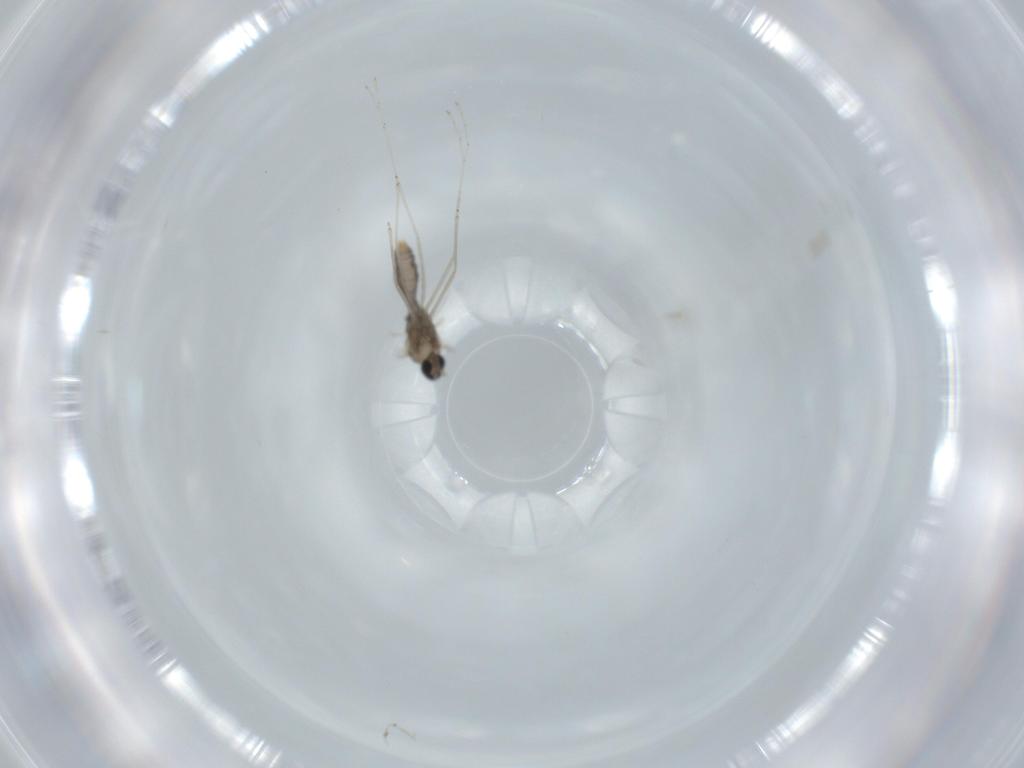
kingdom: Animalia
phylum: Arthropoda
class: Insecta
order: Diptera
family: Cecidomyiidae
